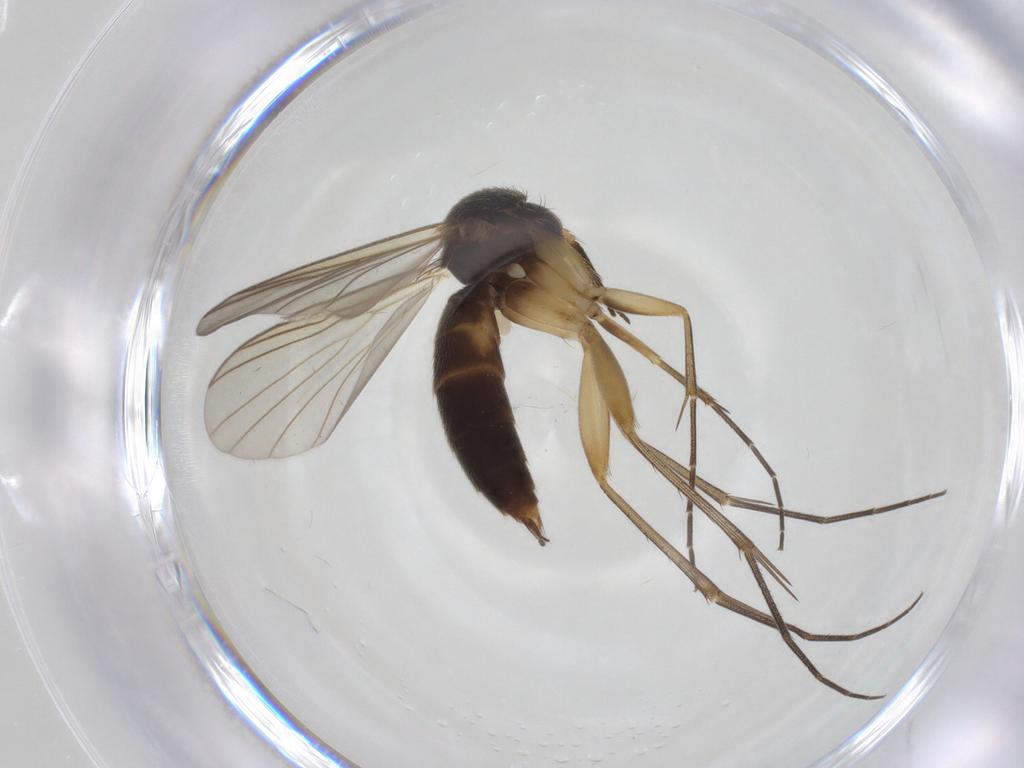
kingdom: Animalia
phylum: Arthropoda
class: Insecta
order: Diptera
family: Mycetophilidae
